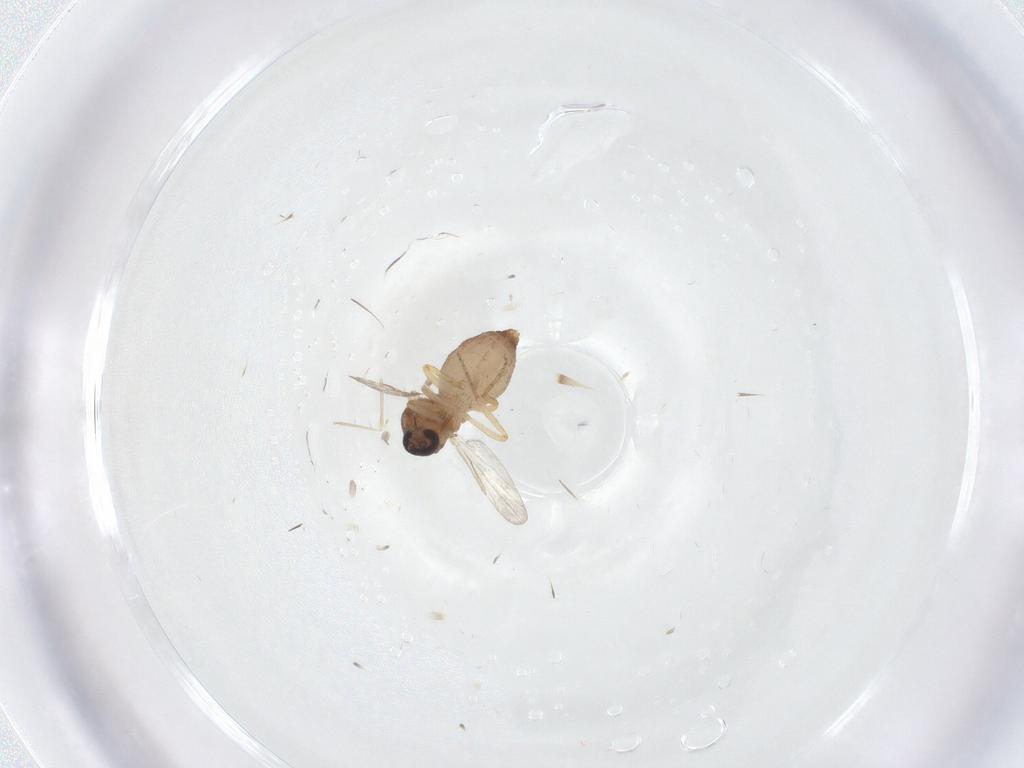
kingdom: Animalia
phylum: Arthropoda
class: Insecta
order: Diptera
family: Ceratopogonidae
